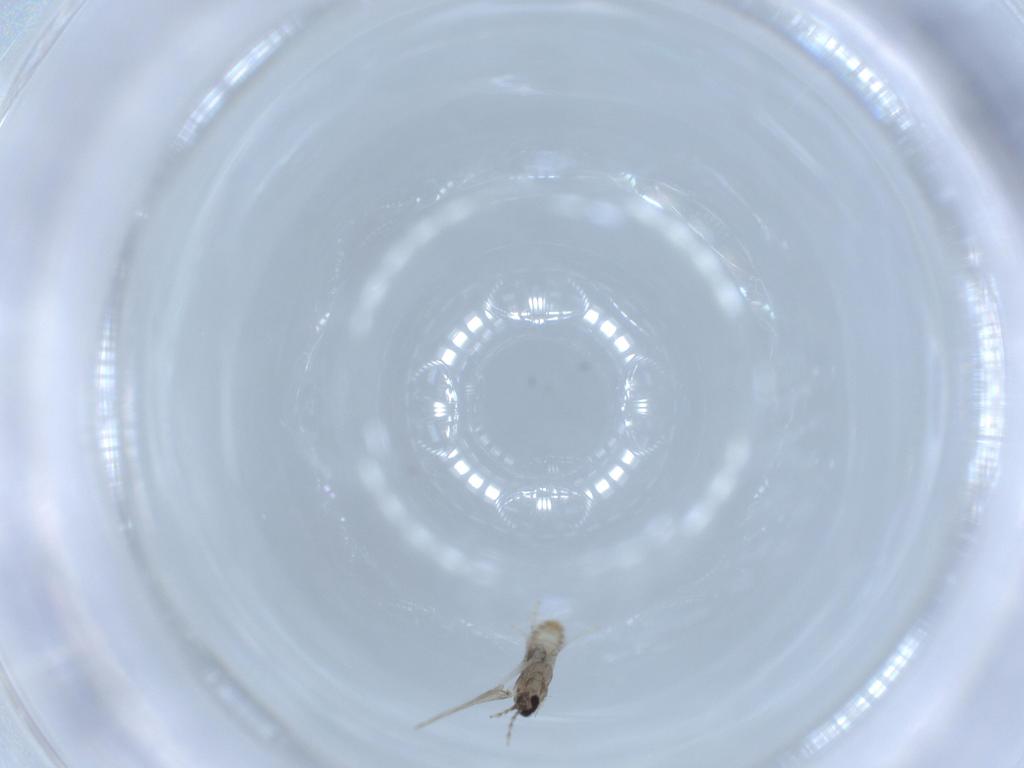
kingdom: Animalia
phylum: Arthropoda
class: Insecta
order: Diptera
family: Cecidomyiidae
